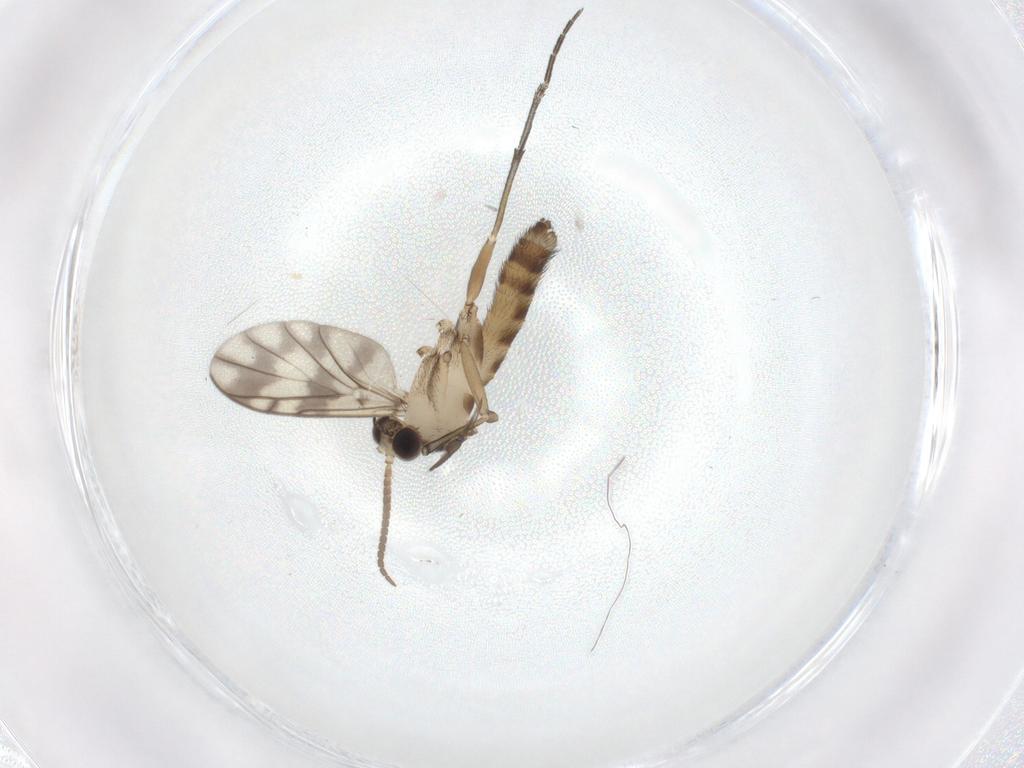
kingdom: Animalia
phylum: Arthropoda
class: Insecta
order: Diptera
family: Cecidomyiidae
